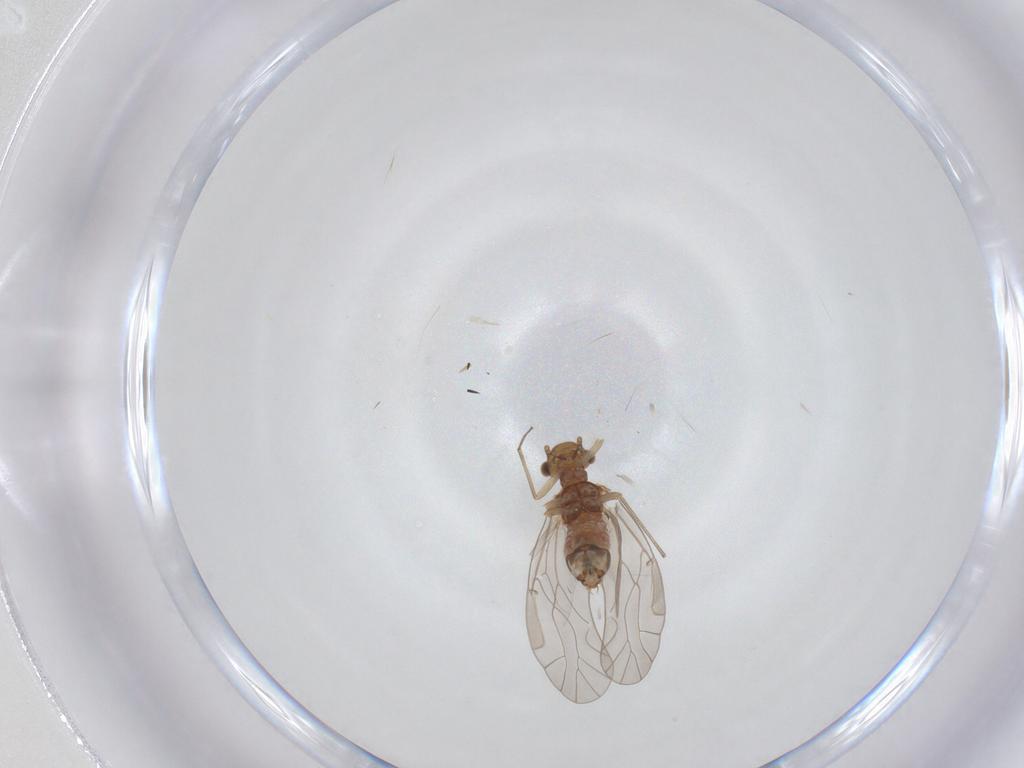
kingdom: Animalia
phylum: Arthropoda
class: Insecta
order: Psocodea
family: Lachesillidae
